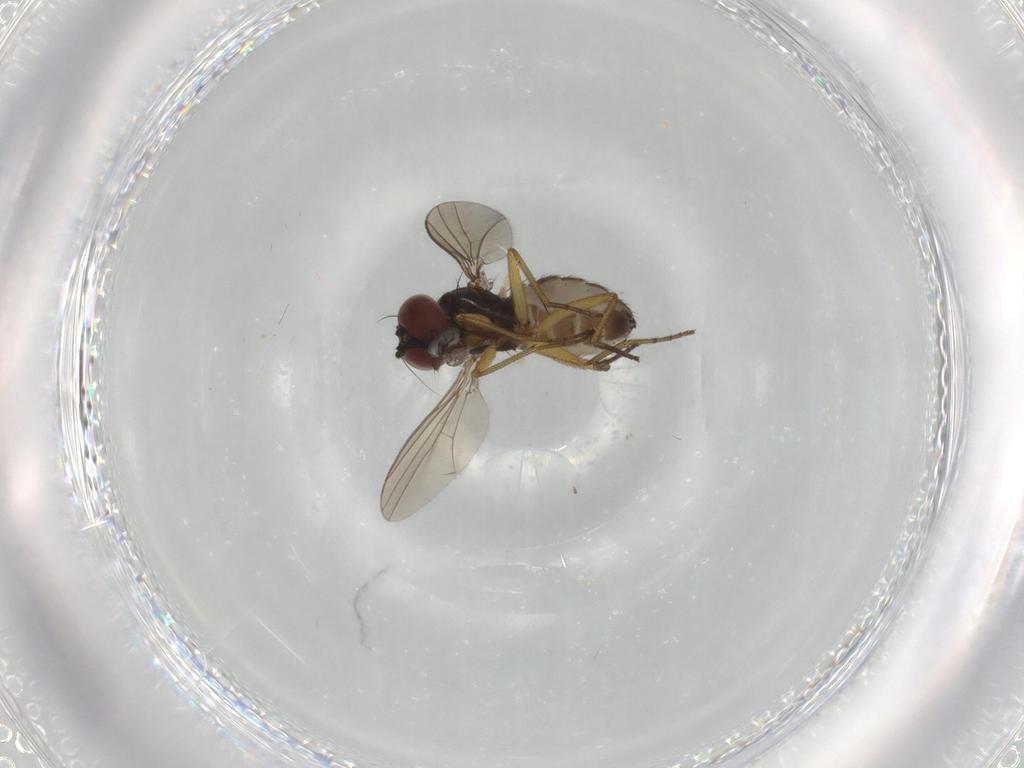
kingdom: Animalia
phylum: Arthropoda
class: Insecta
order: Diptera
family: Dolichopodidae
